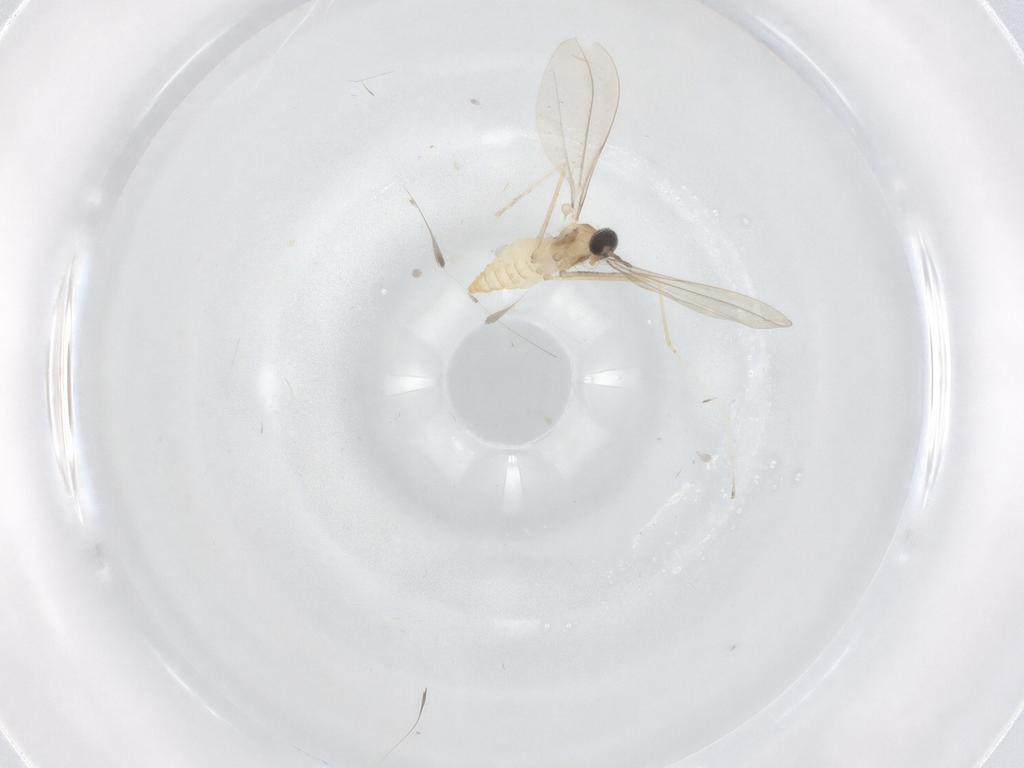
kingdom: Animalia
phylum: Arthropoda
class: Insecta
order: Diptera
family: Cecidomyiidae
